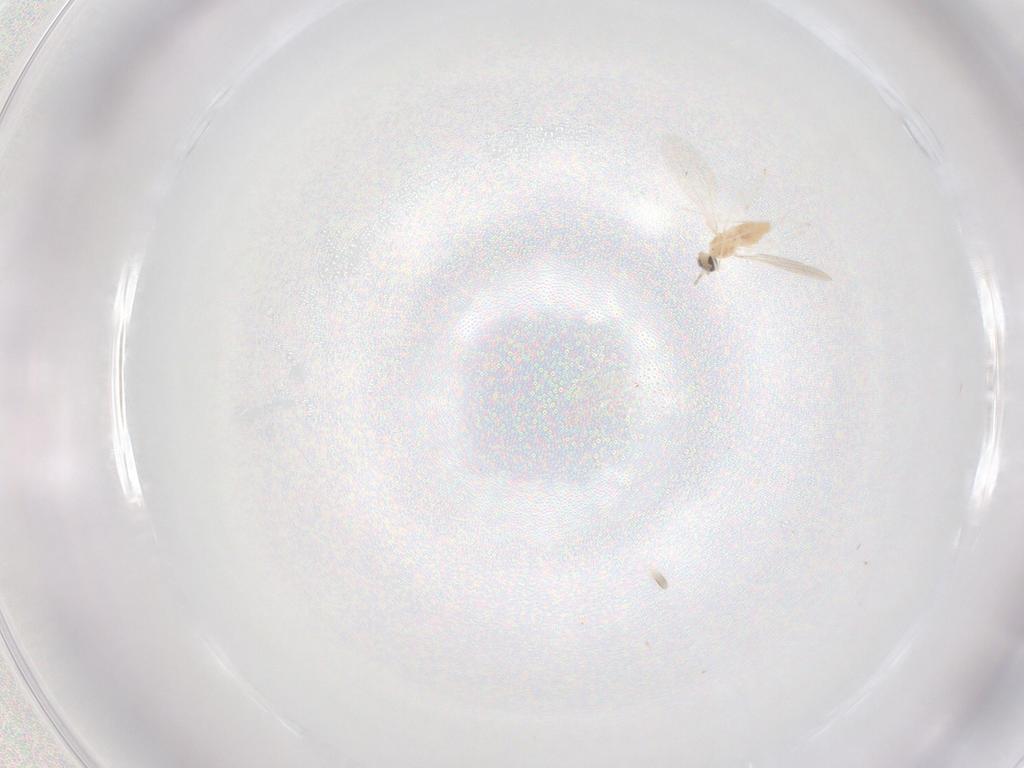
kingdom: Animalia
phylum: Arthropoda
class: Insecta
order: Diptera
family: Cecidomyiidae
